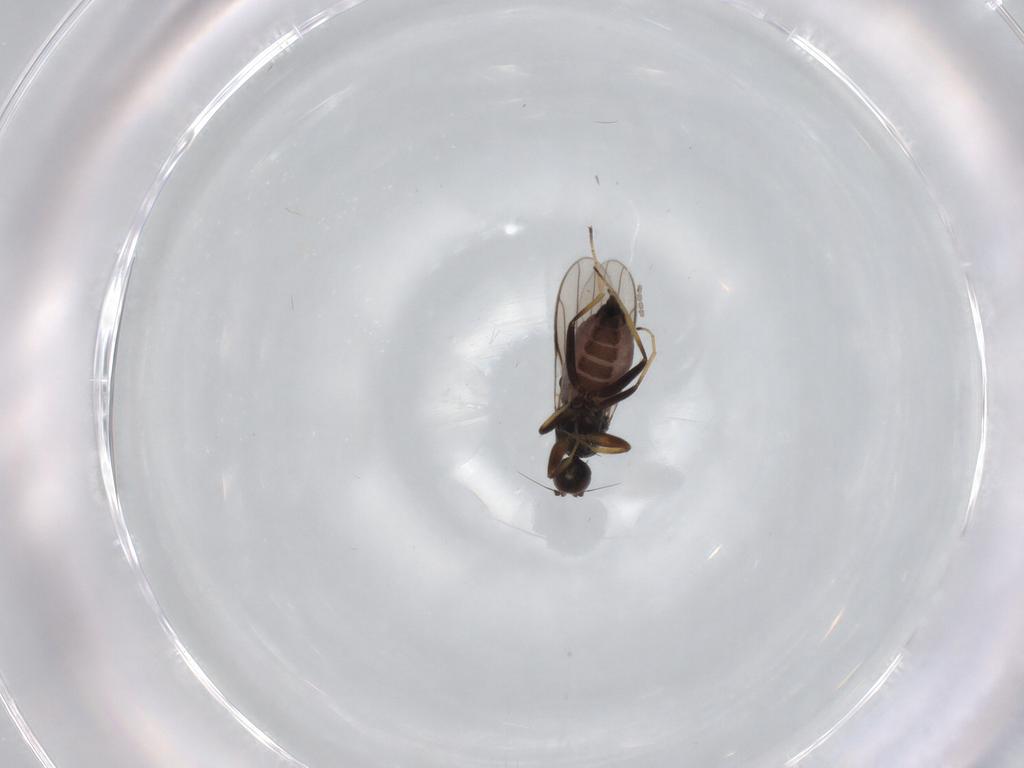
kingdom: Animalia
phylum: Arthropoda
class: Insecta
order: Diptera
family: Hybotidae
